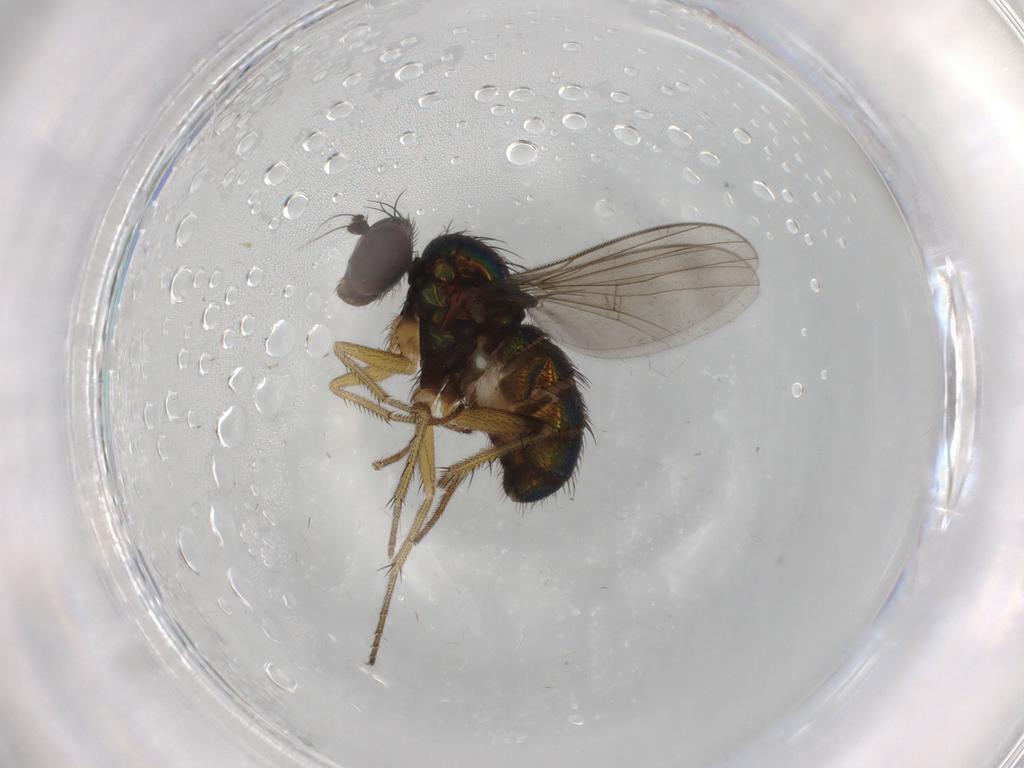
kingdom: Animalia
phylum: Arthropoda
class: Insecta
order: Diptera
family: Dolichopodidae
